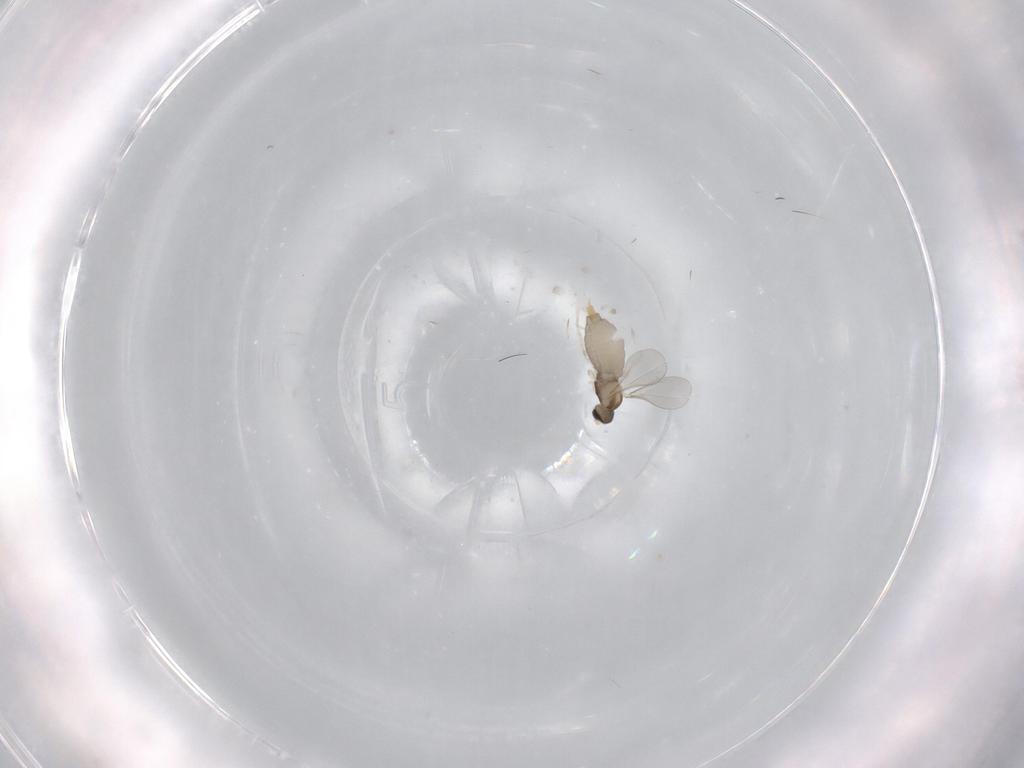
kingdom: Animalia
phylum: Arthropoda
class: Insecta
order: Diptera
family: Cecidomyiidae
